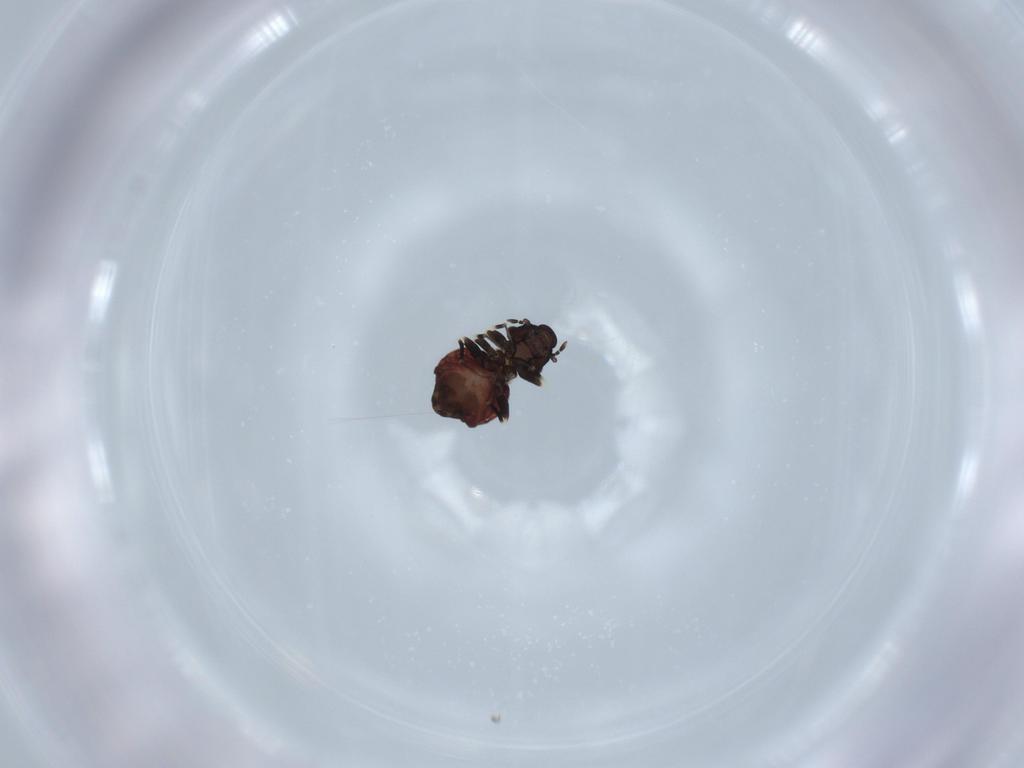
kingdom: Animalia
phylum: Arthropoda
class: Insecta
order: Psocodea
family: Lepidopsocidae
